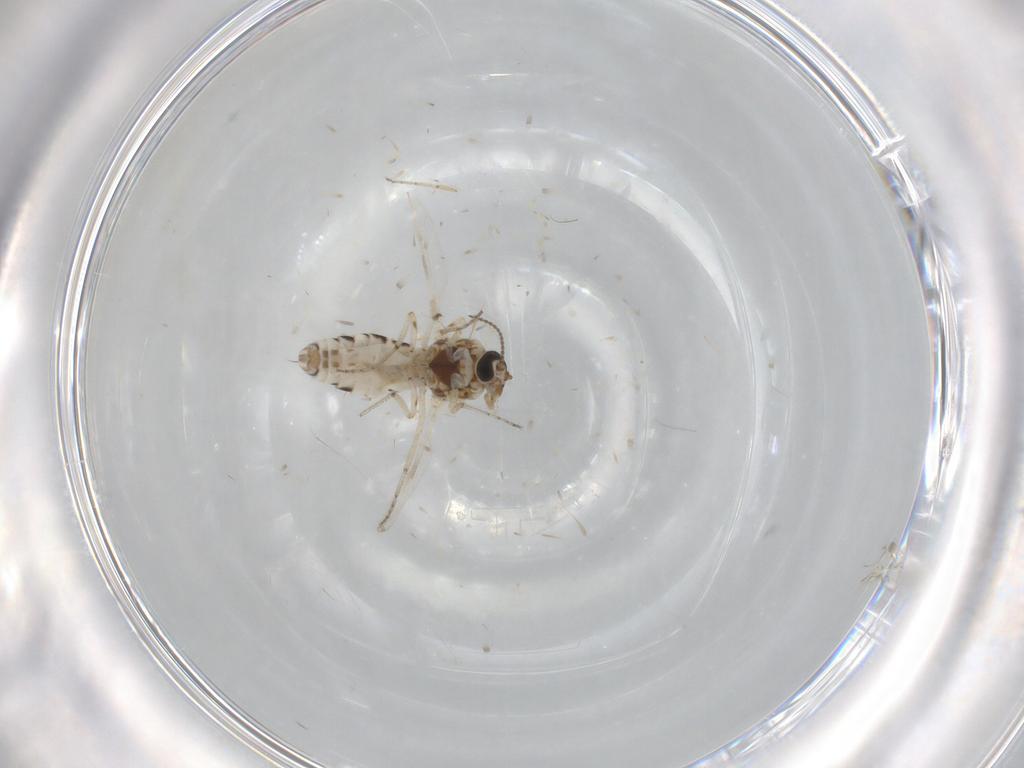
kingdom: Animalia
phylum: Arthropoda
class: Insecta
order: Diptera
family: Ceratopogonidae
